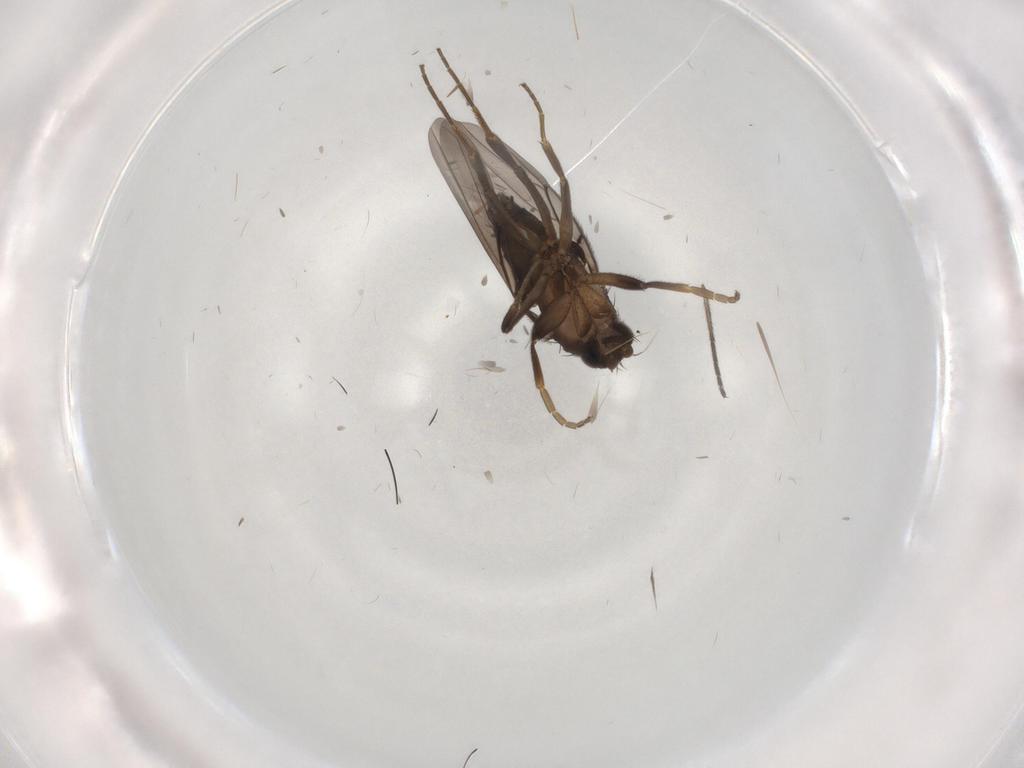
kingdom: Animalia
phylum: Arthropoda
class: Insecta
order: Diptera
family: Phoridae
